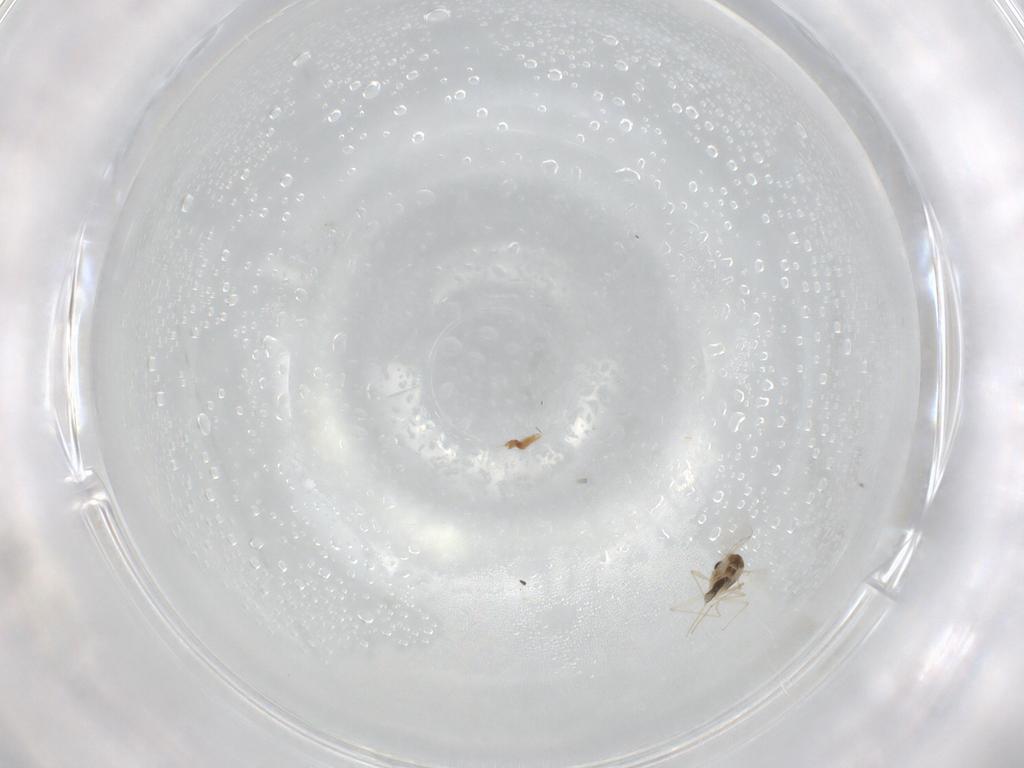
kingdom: Animalia
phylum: Arthropoda
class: Insecta
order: Diptera
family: Chironomidae
